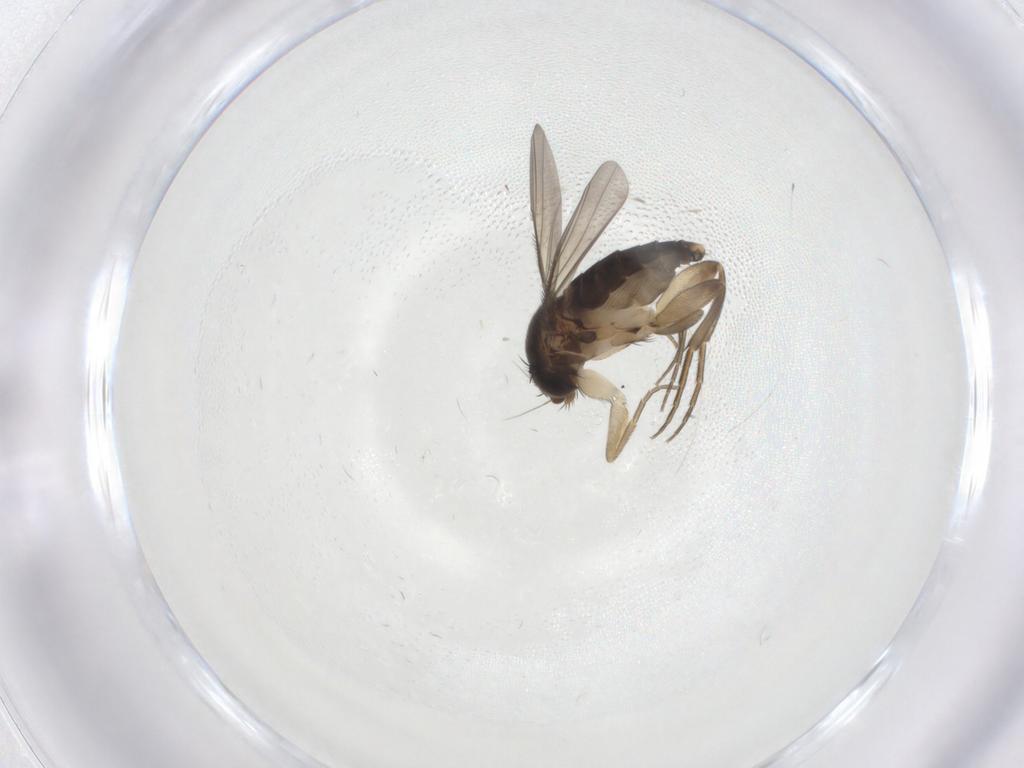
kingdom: Animalia
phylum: Arthropoda
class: Insecta
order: Diptera
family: Phoridae
